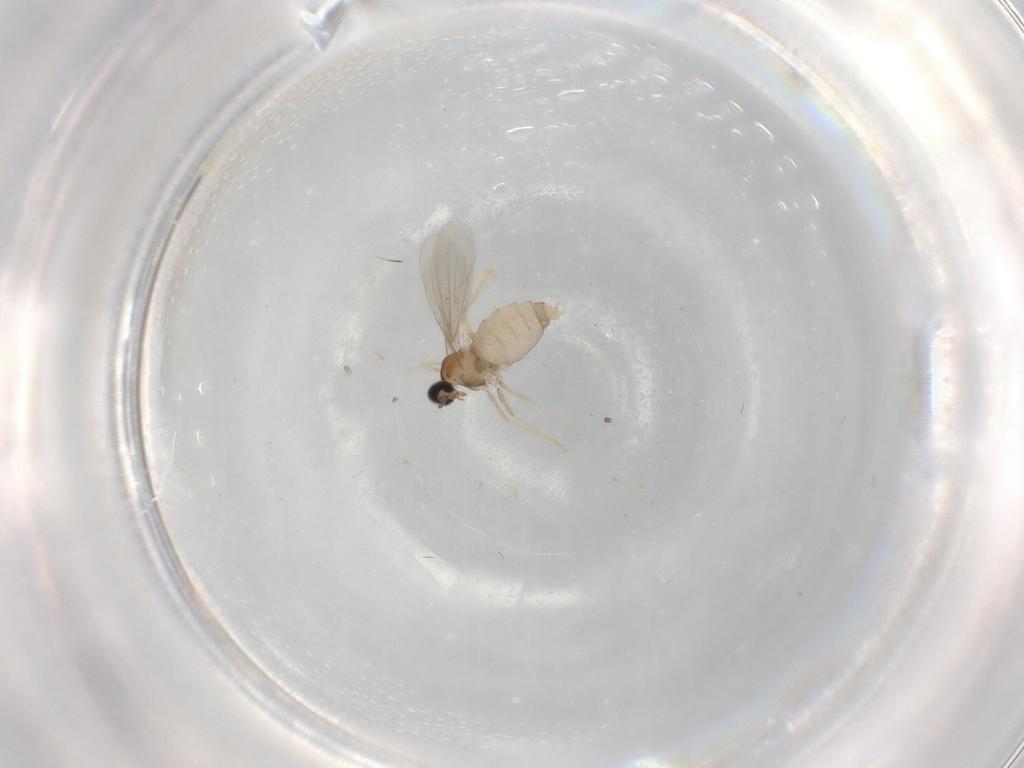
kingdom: Animalia
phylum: Arthropoda
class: Insecta
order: Diptera
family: Cecidomyiidae
